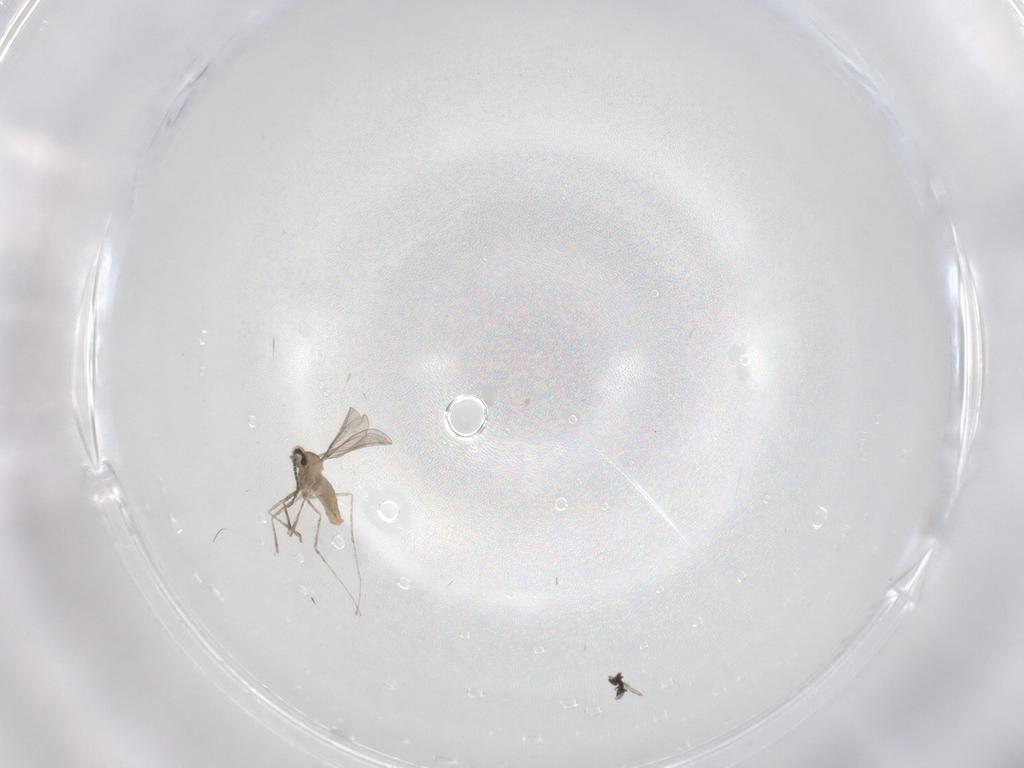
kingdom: Animalia
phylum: Arthropoda
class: Insecta
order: Diptera
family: Cecidomyiidae
